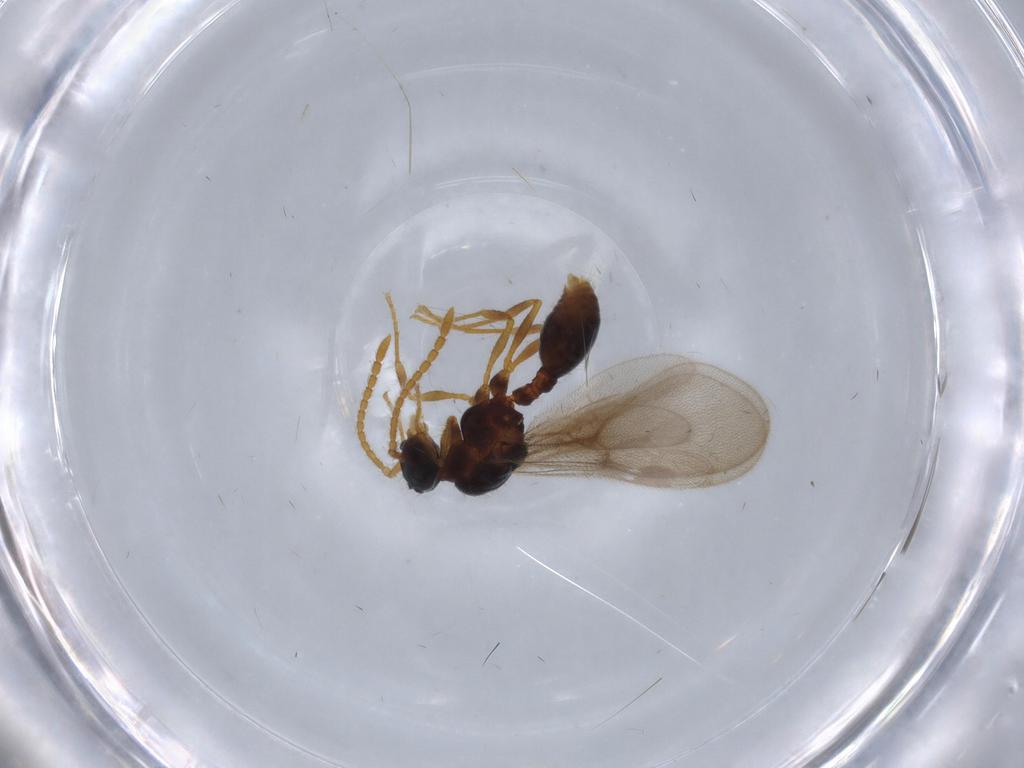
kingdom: Animalia
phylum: Arthropoda
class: Insecta
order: Hymenoptera
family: Formicidae
